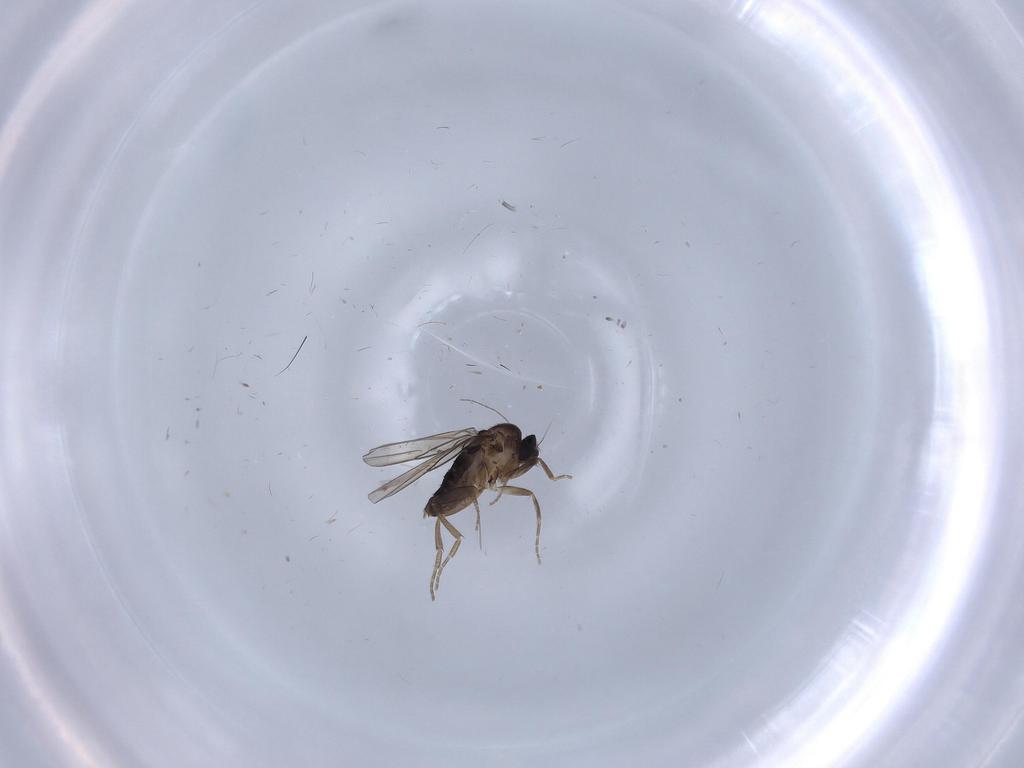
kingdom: Animalia
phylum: Arthropoda
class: Insecta
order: Diptera
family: Phoridae
